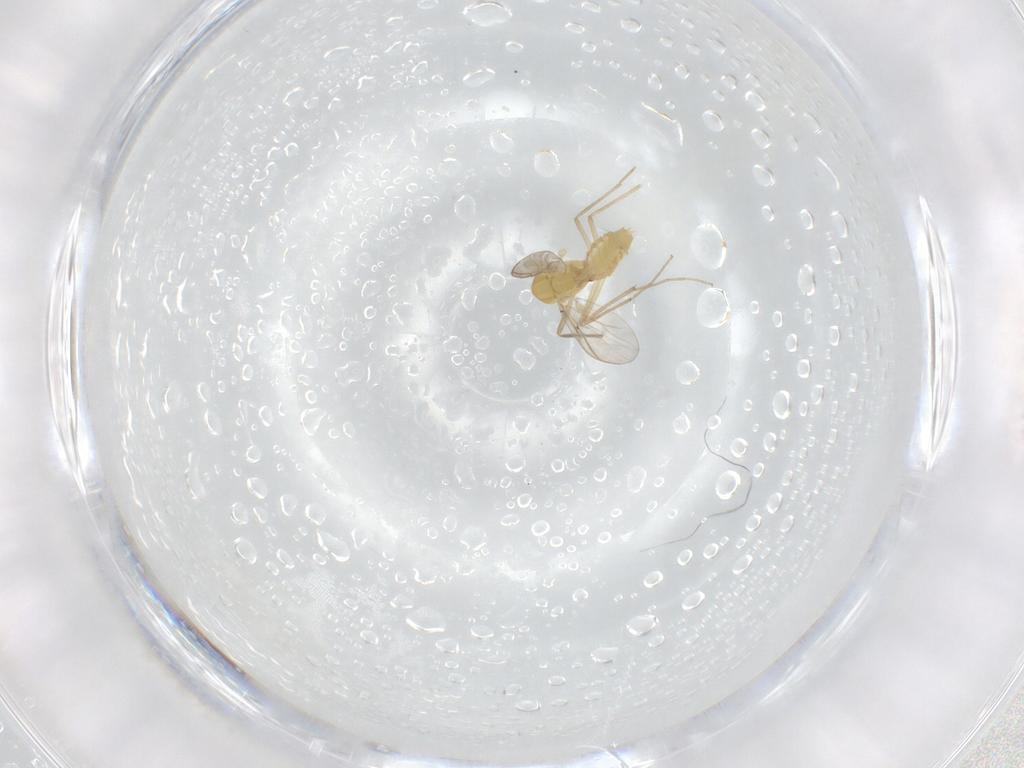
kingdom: Animalia
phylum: Arthropoda
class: Insecta
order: Diptera
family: Chironomidae
